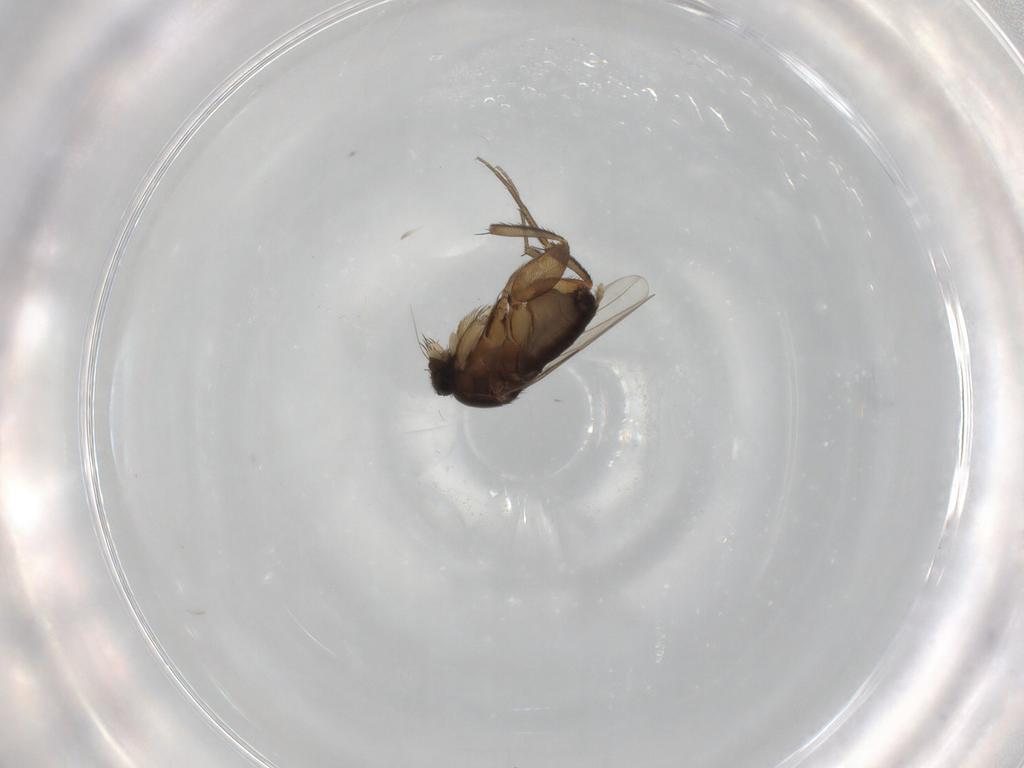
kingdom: Animalia
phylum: Arthropoda
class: Insecta
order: Diptera
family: Phoridae
